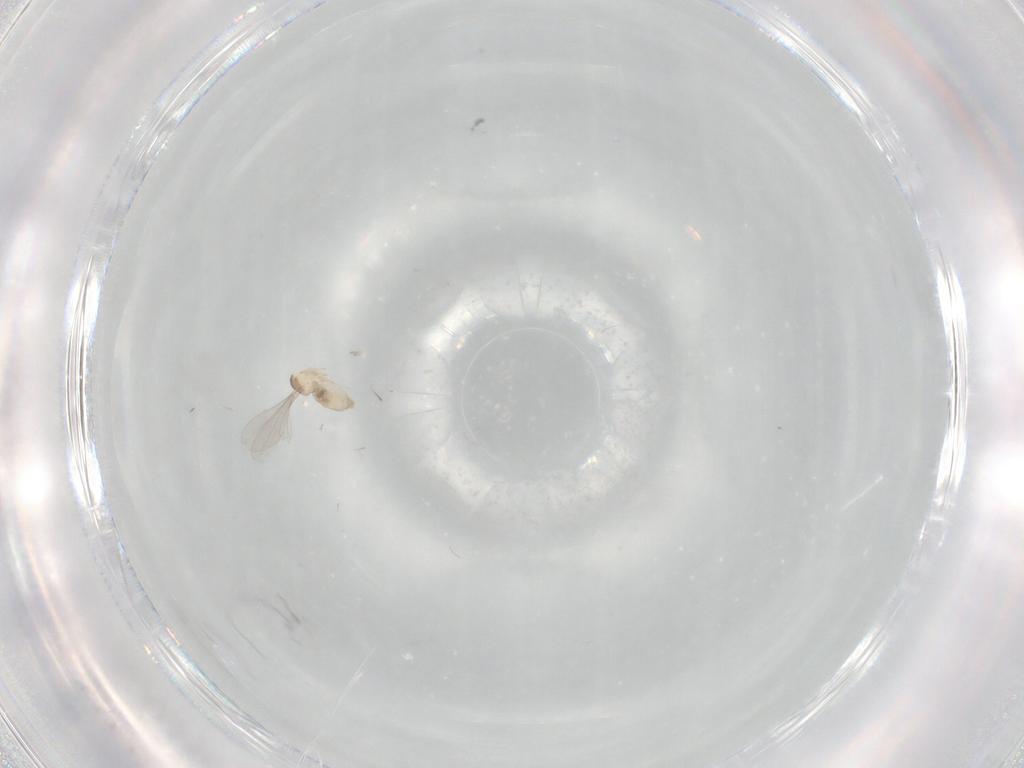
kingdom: Animalia
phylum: Arthropoda
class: Insecta
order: Diptera
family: Cecidomyiidae
